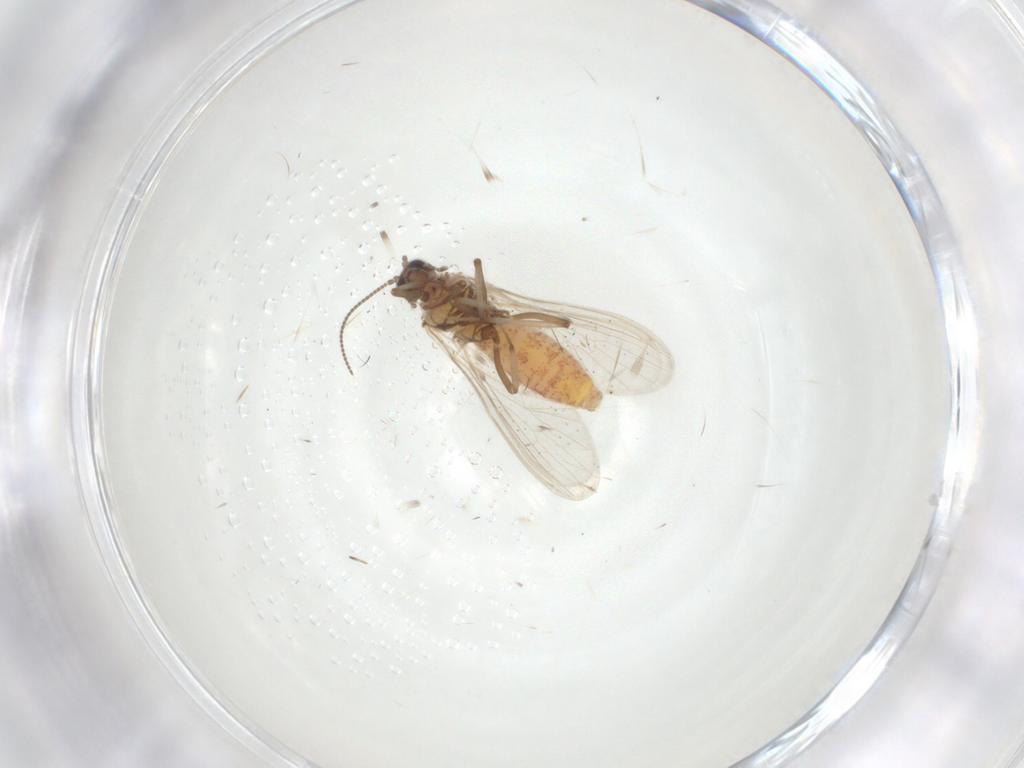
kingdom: Animalia
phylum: Arthropoda
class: Insecta
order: Neuroptera
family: Coniopterygidae
